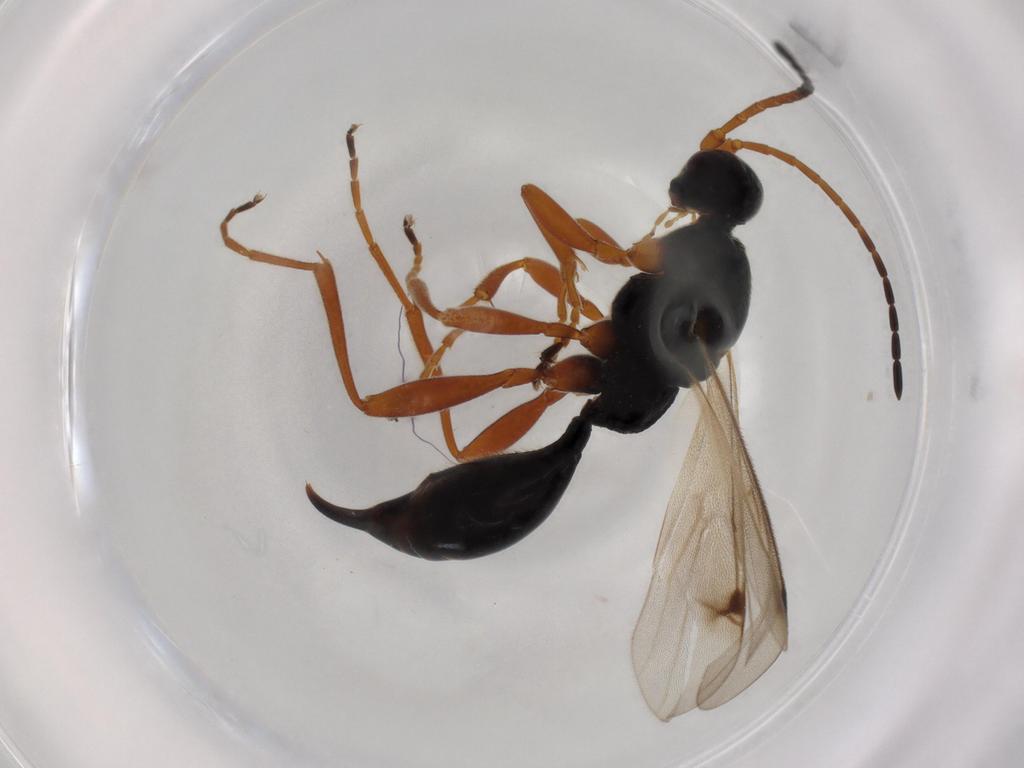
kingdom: Animalia
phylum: Arthropoda
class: Insecta
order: Hymenoptera
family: Proctotrupidae
